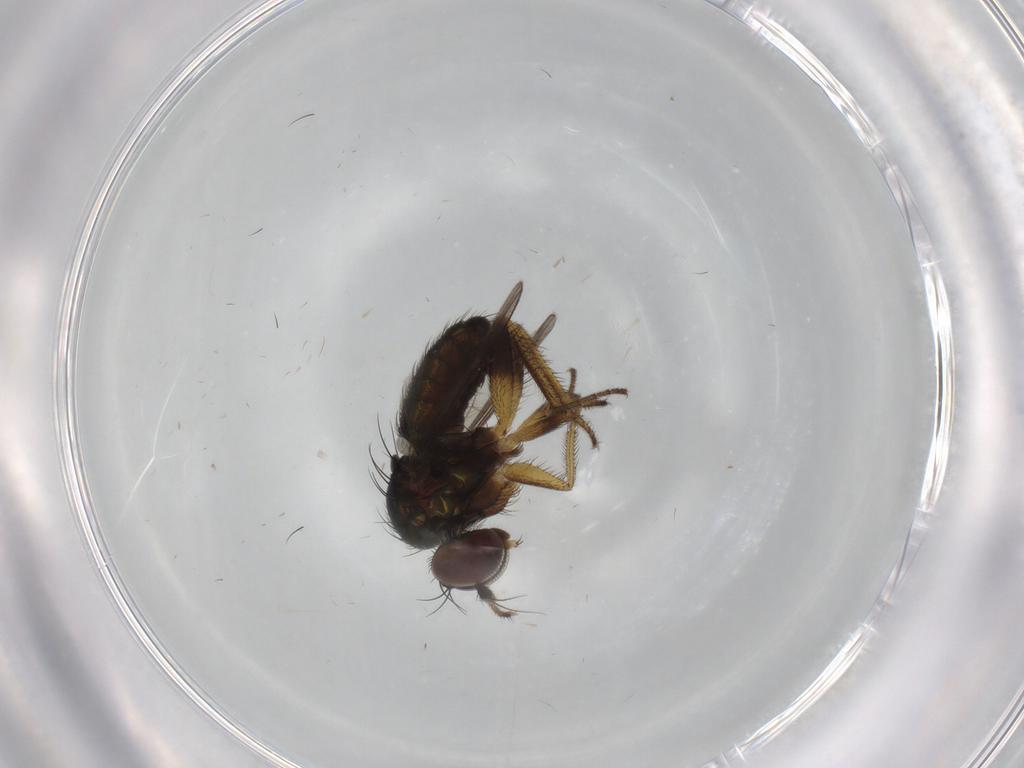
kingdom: Animalia
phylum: Arthropoda
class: Insecta
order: Diptera
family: Dolichopodidae
